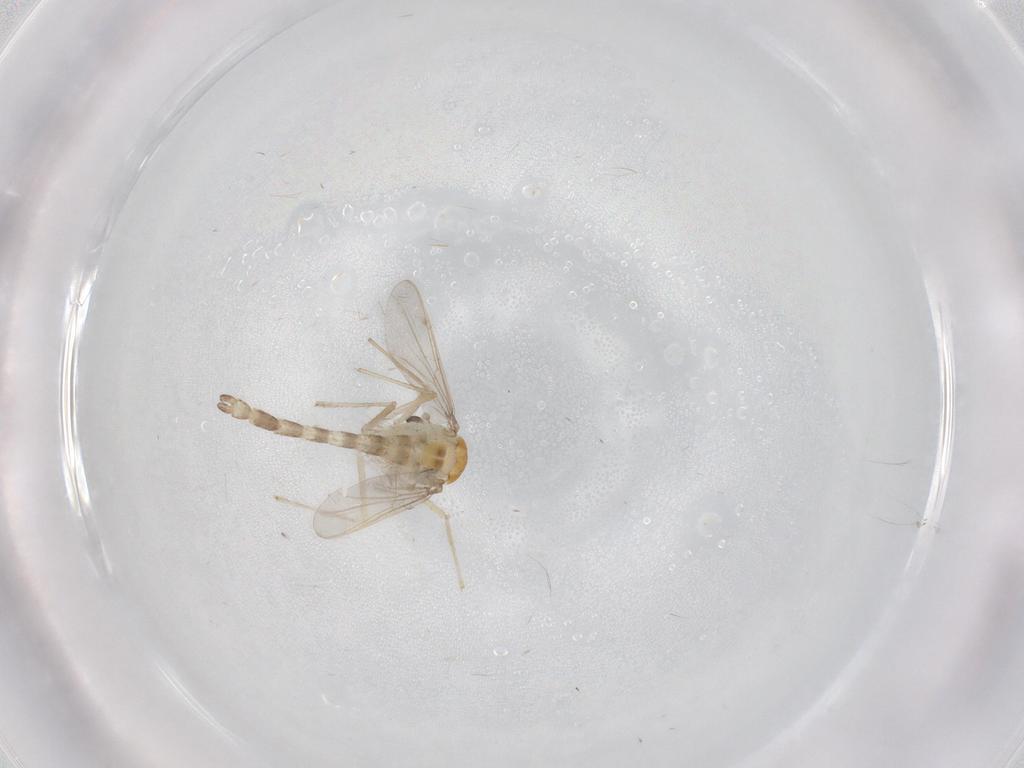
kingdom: Animalia
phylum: Arthropoda
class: Insecta
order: Diptera
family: Chironomidae
